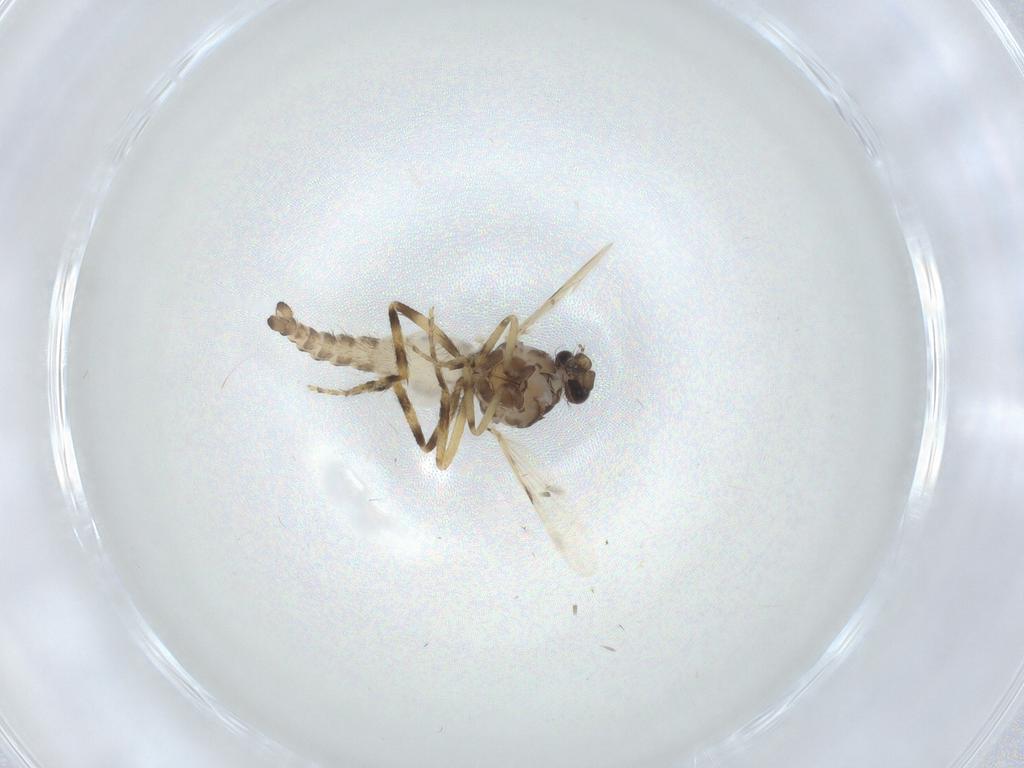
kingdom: Animalia
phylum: Arthropoda
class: Insecta
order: Diptera
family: Ceratopogonidae
